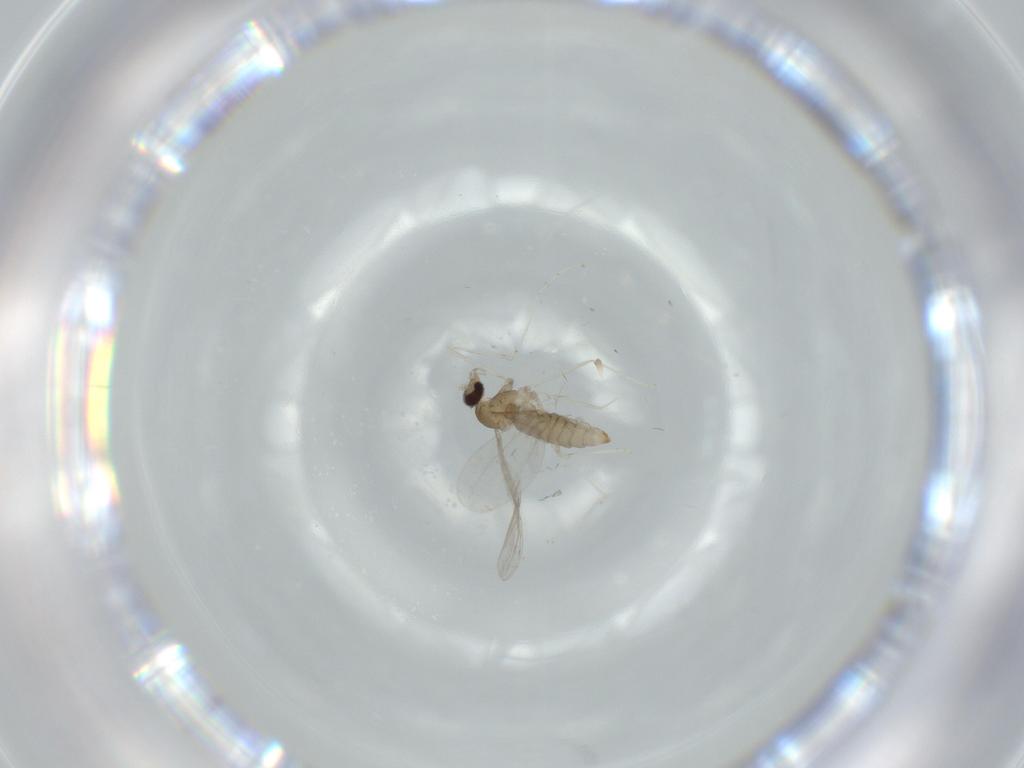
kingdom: Animalia
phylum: Arthropoda
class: Insecta
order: Diptera
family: Cecidomyiidae
